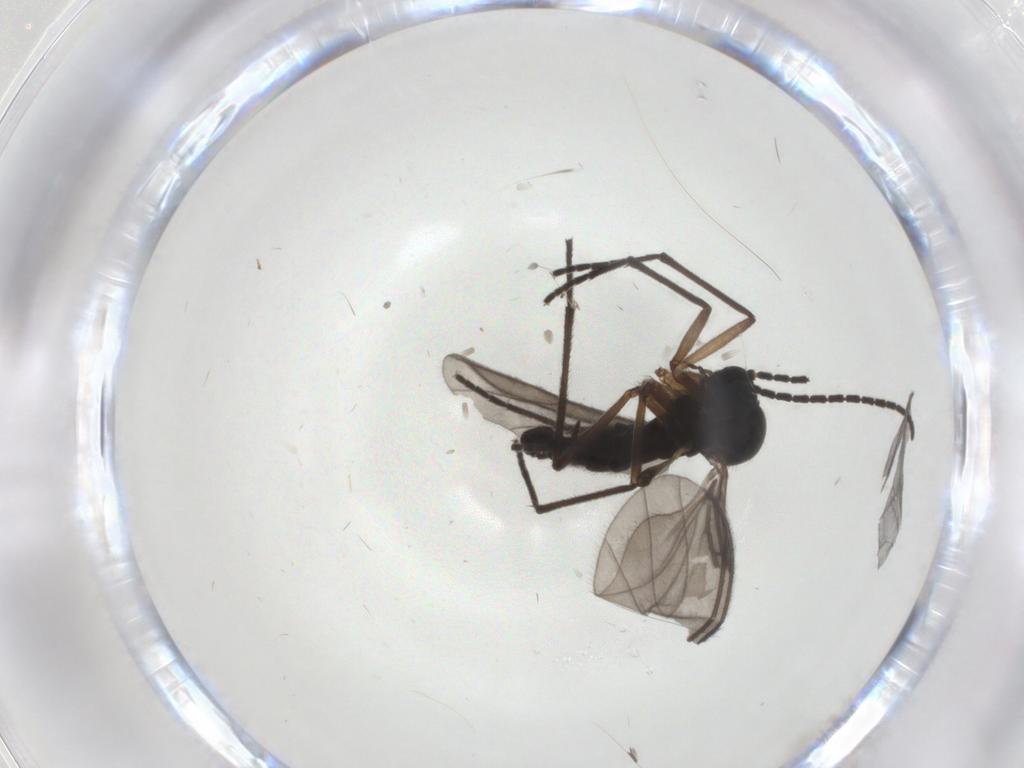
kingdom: Animalia
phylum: Arthropoda
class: Insecta
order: Diptera
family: Sciaridae
